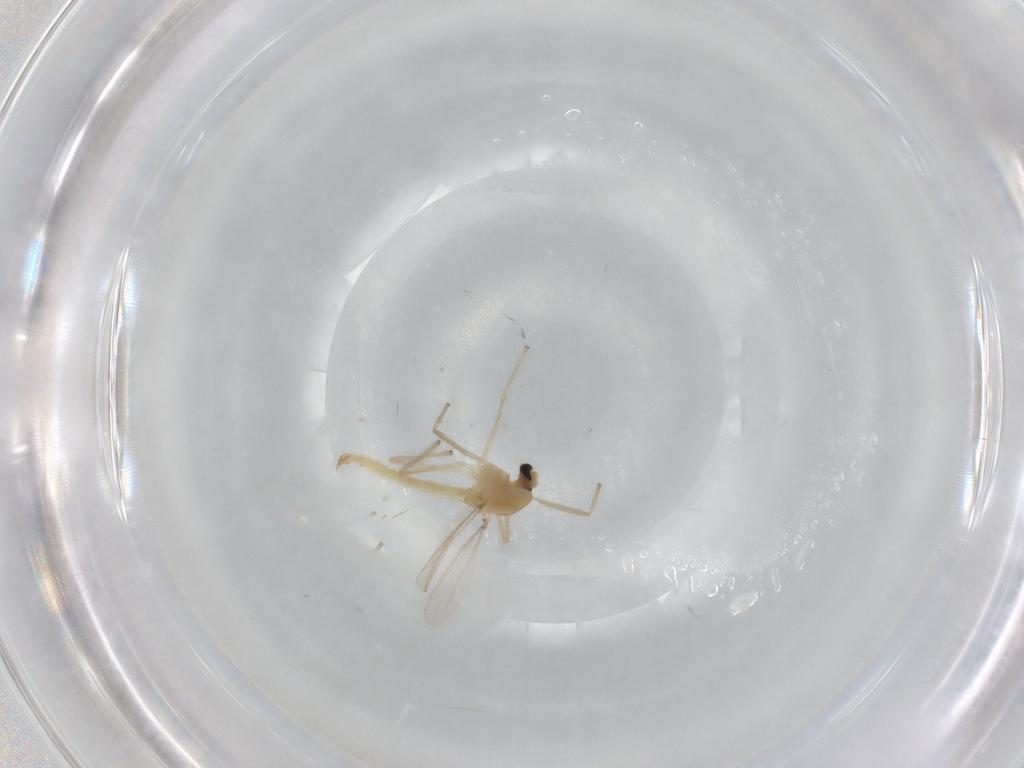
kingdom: Animalia
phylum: Arthropoda
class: Insecta
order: Diptera
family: Chironomidae
